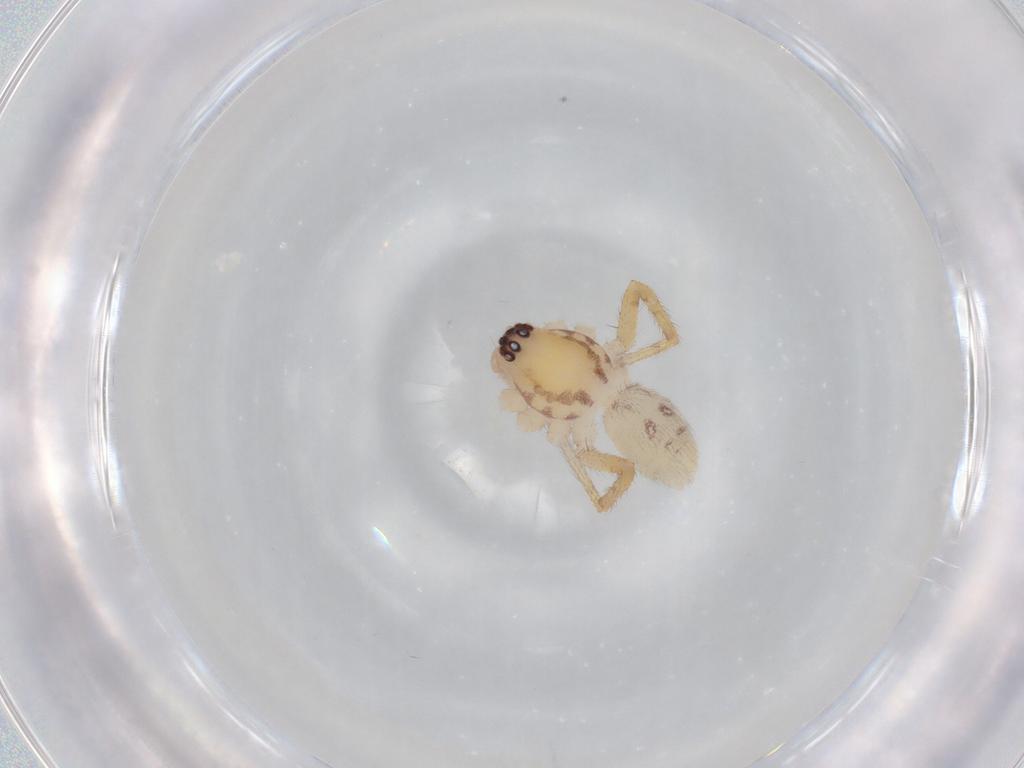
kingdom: Animalia
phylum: Arthropoda
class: Arachnida
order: Araneae
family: Corinnidae
